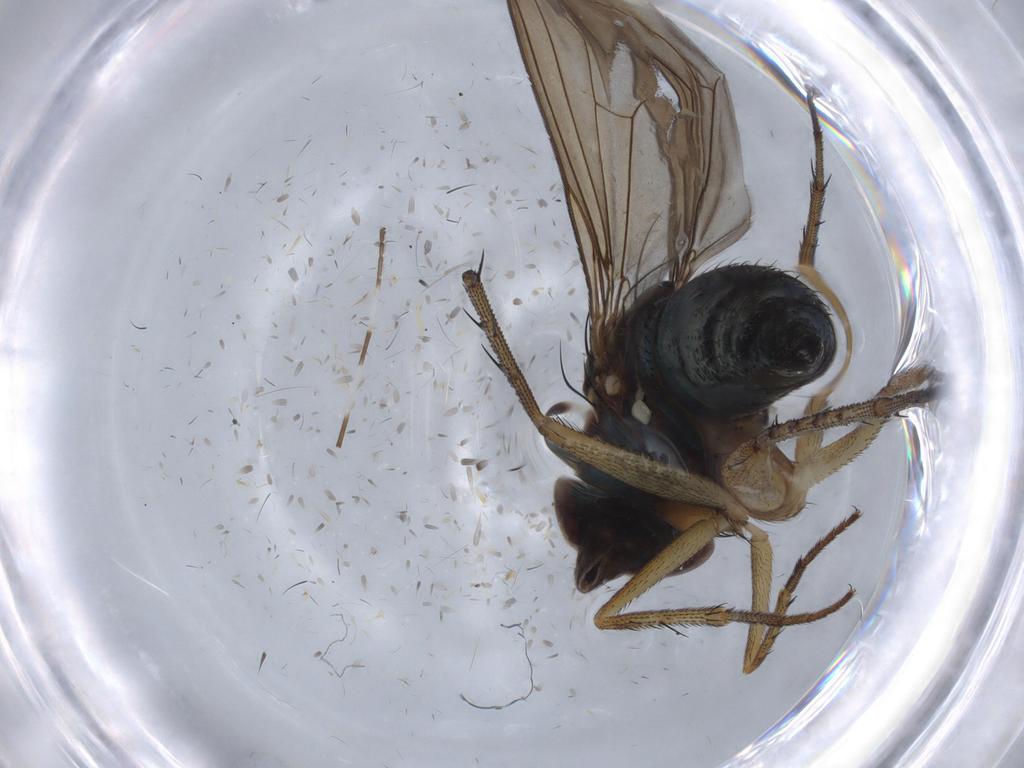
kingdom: Animalia
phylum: Arthropoda
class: Insecta
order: Diptera
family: Dolichopodidae
